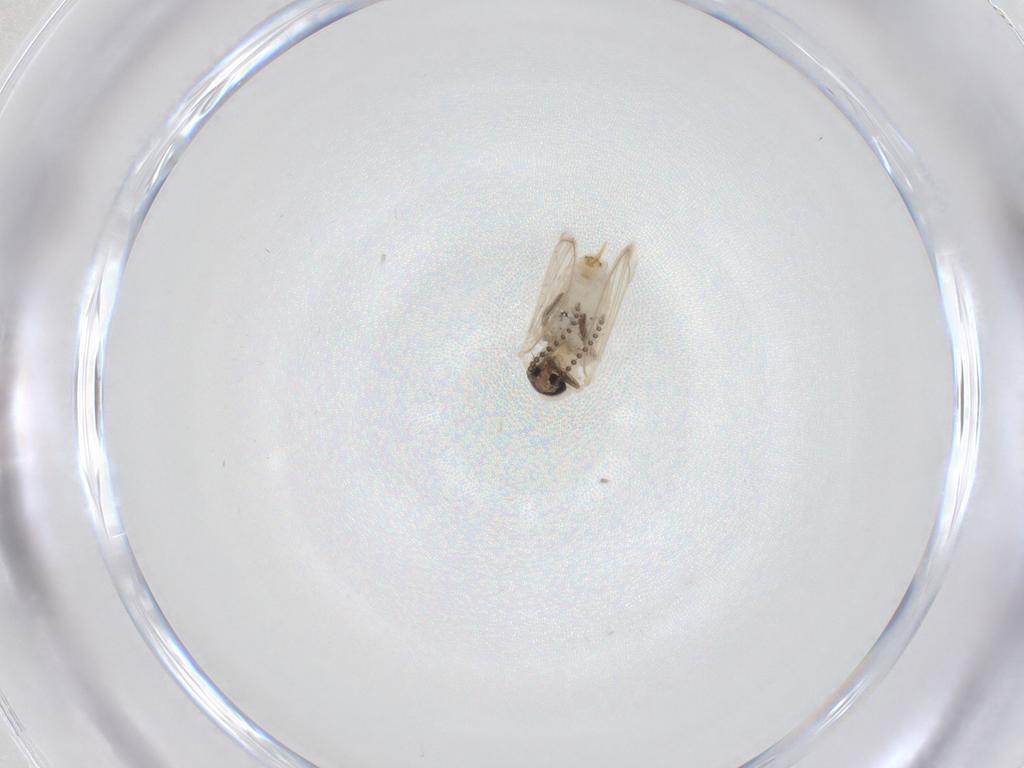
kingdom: Animalia
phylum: Arthropoda
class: Insecta
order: Diptera
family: Psychodidae
